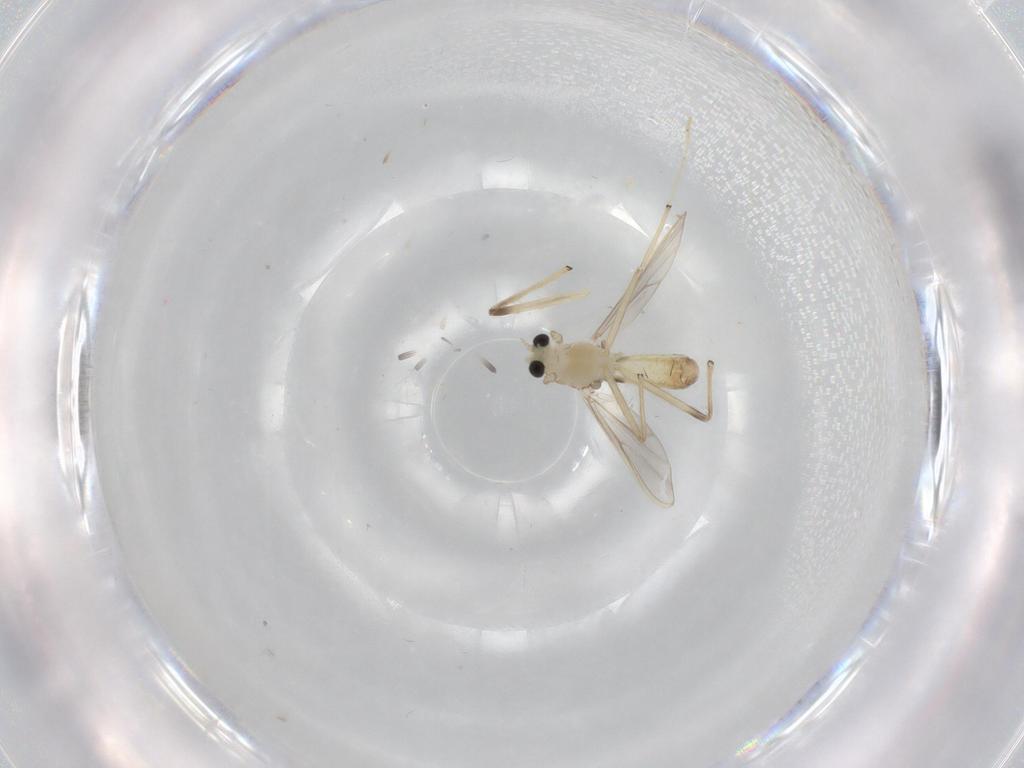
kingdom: Animalia
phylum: Arthropoda
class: Insecta
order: Diptera
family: Chironomidae
